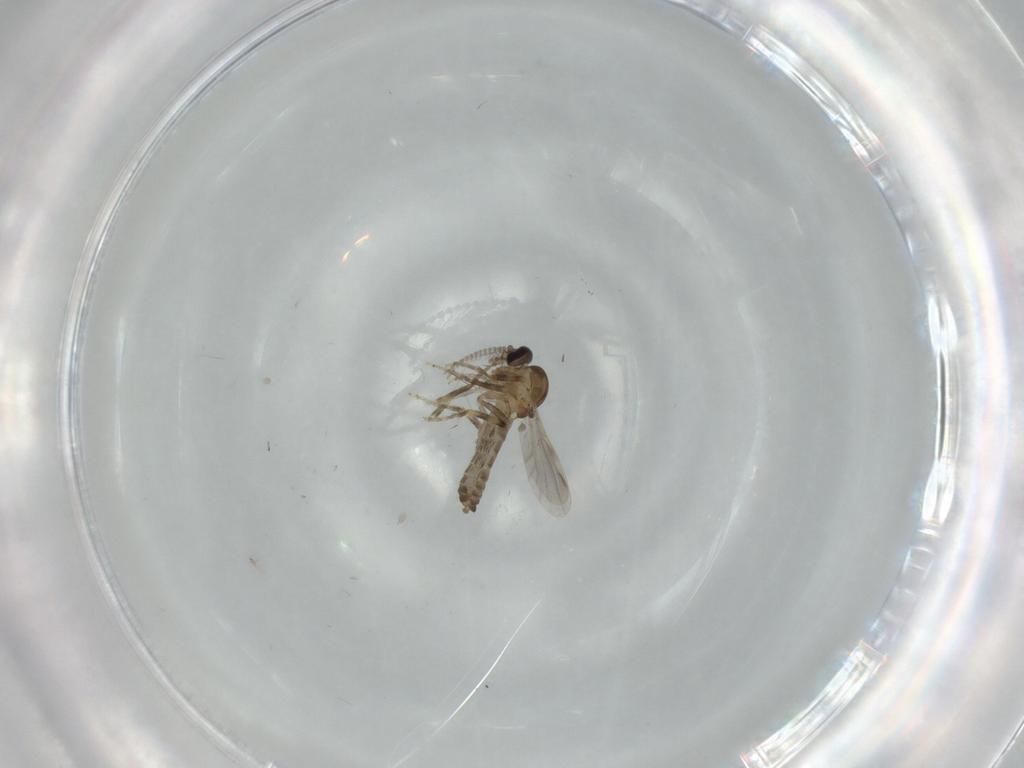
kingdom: Animalia
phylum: Arthropoda
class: Insecta
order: Diptera
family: Ceratopogonidae
